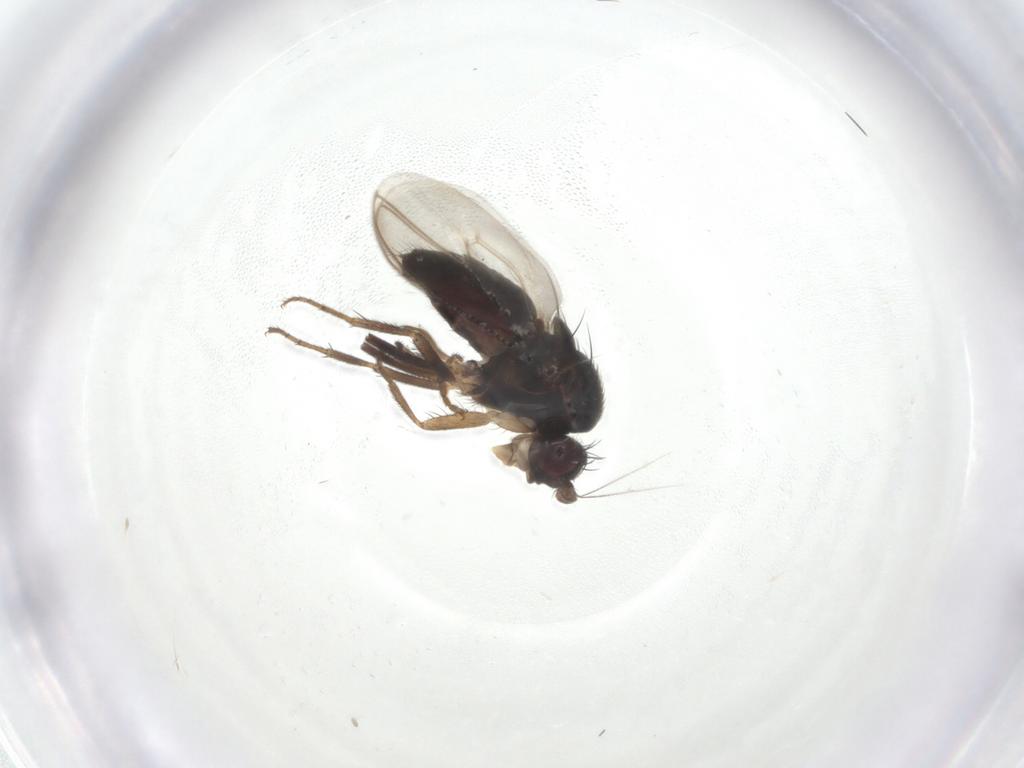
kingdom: Animalia
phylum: Arthropoda
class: Insecta
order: Diptera
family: Sphaeroceridae
